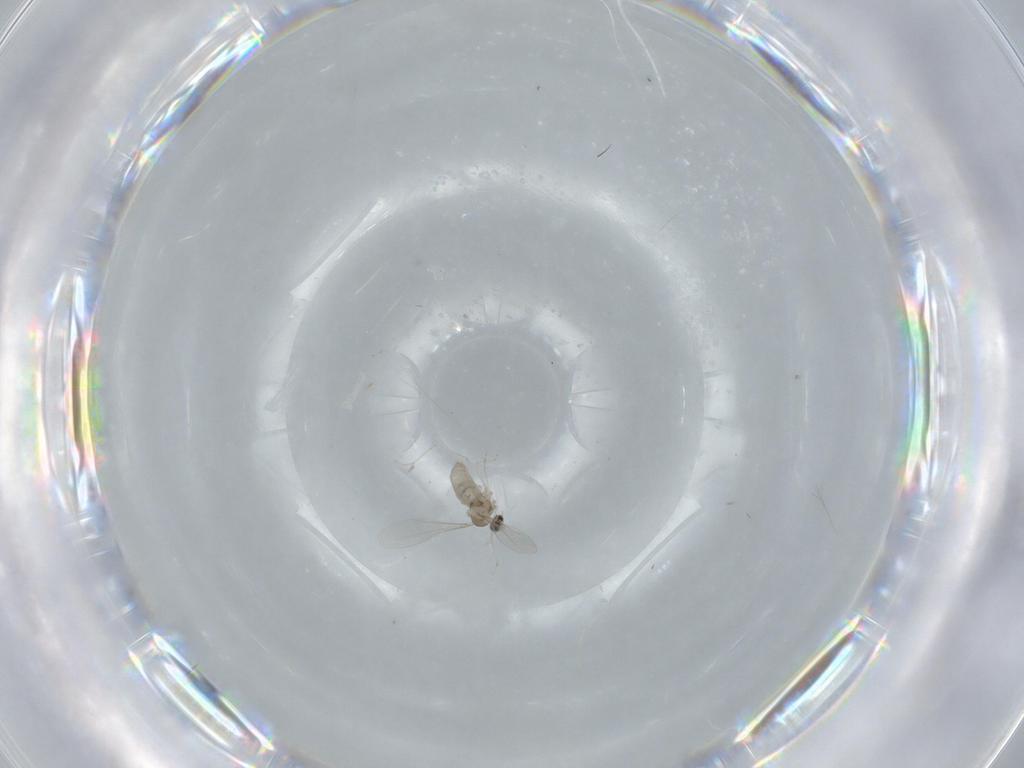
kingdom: Animalia
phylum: Arthropoda
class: Insecta
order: Diptera
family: Cecidomyiidae
